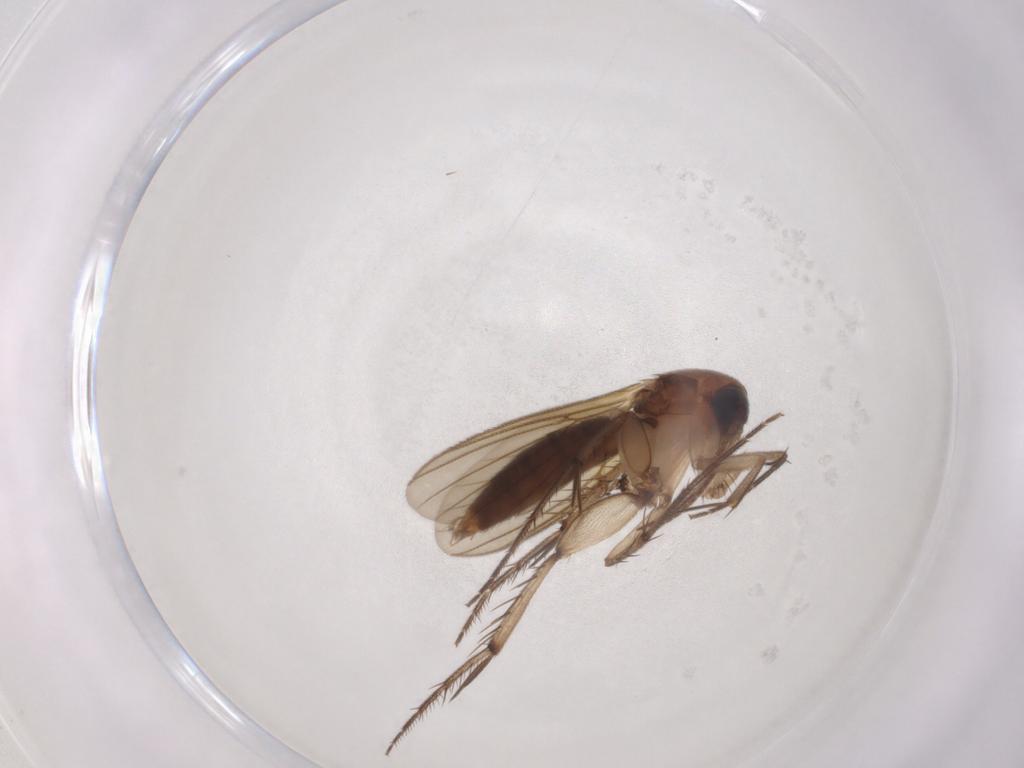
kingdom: Animalia
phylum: Arthropoda
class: Insecta
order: Diptera
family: Mycetophilidae
